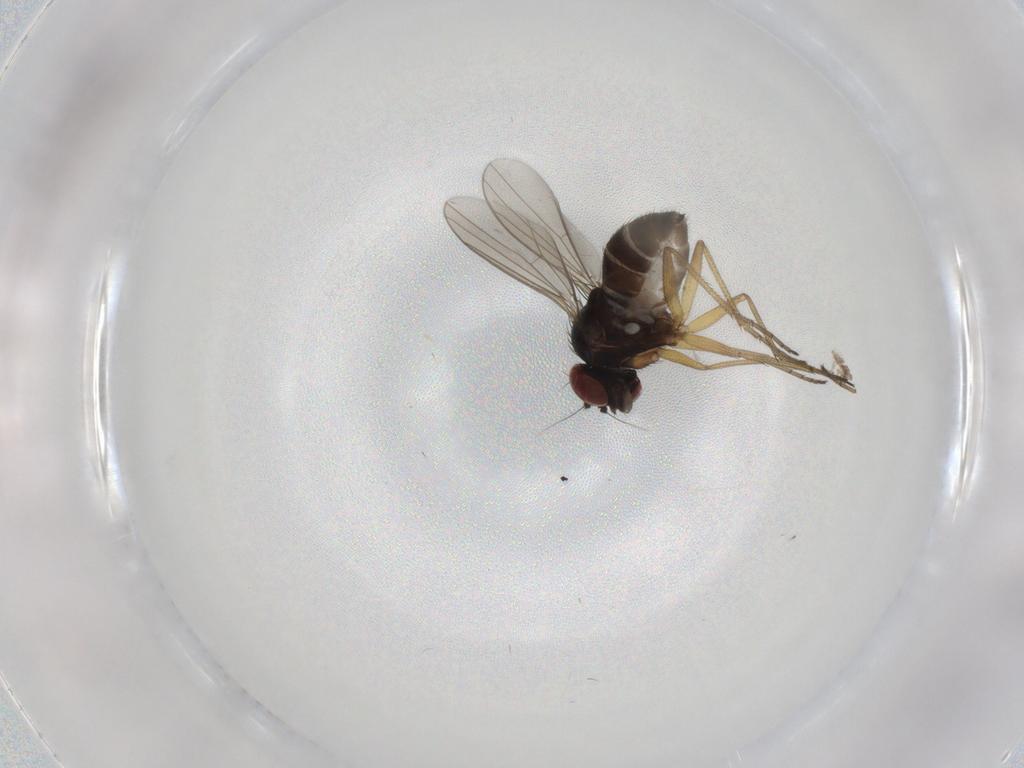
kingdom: Animalia
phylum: Arthropoda
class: Insecta
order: Diptera
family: Dolichopodidae
